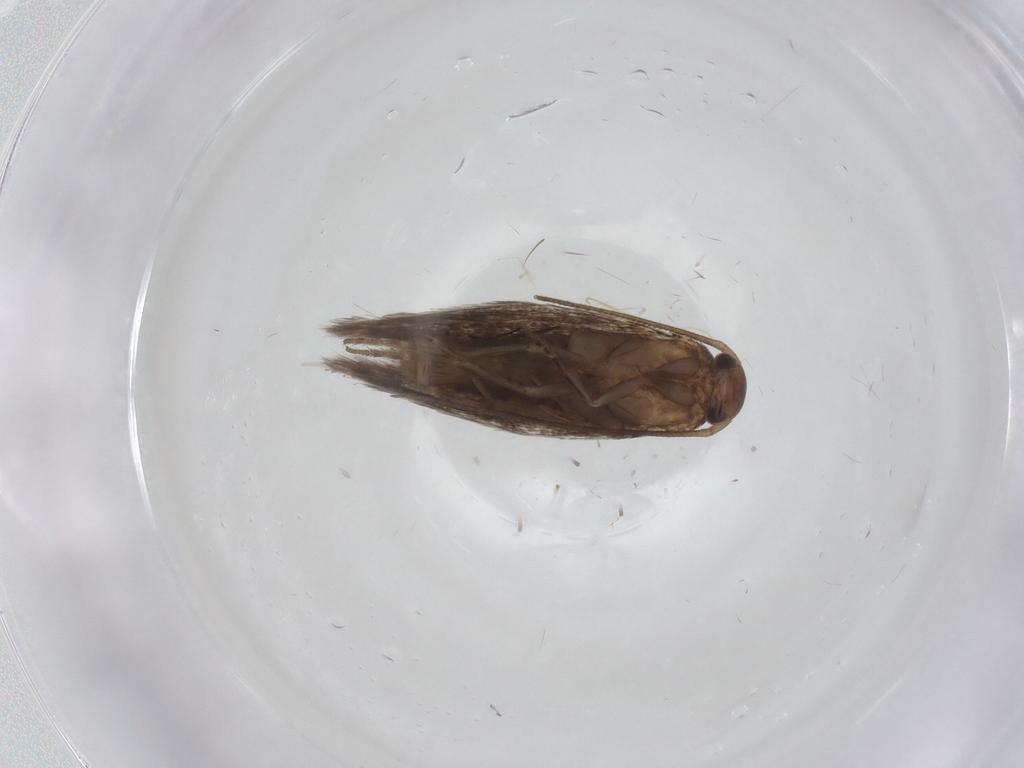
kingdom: Animalia
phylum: Arthropoda
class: Insecta
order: Lepidoptera
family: Elachistidae
